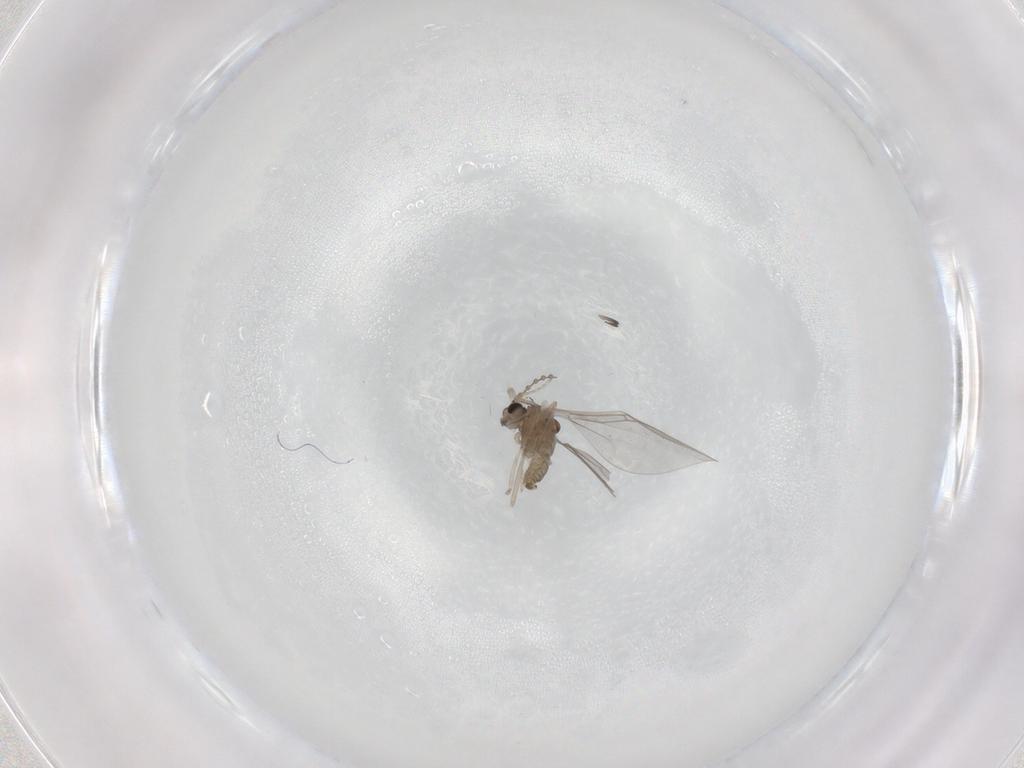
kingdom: Animalia
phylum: Arthropoda
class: Insecta
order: Diptera
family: Phoridae
